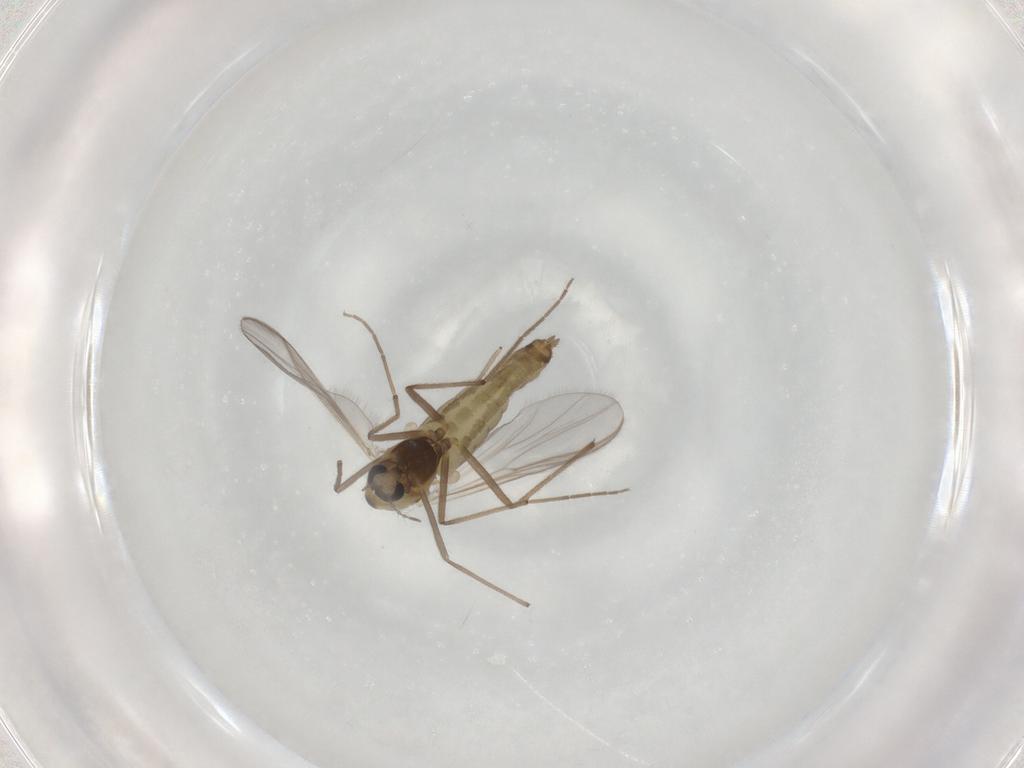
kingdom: Animalia
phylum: Arthropoda
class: Insecta
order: Diptera
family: Chironomidae
